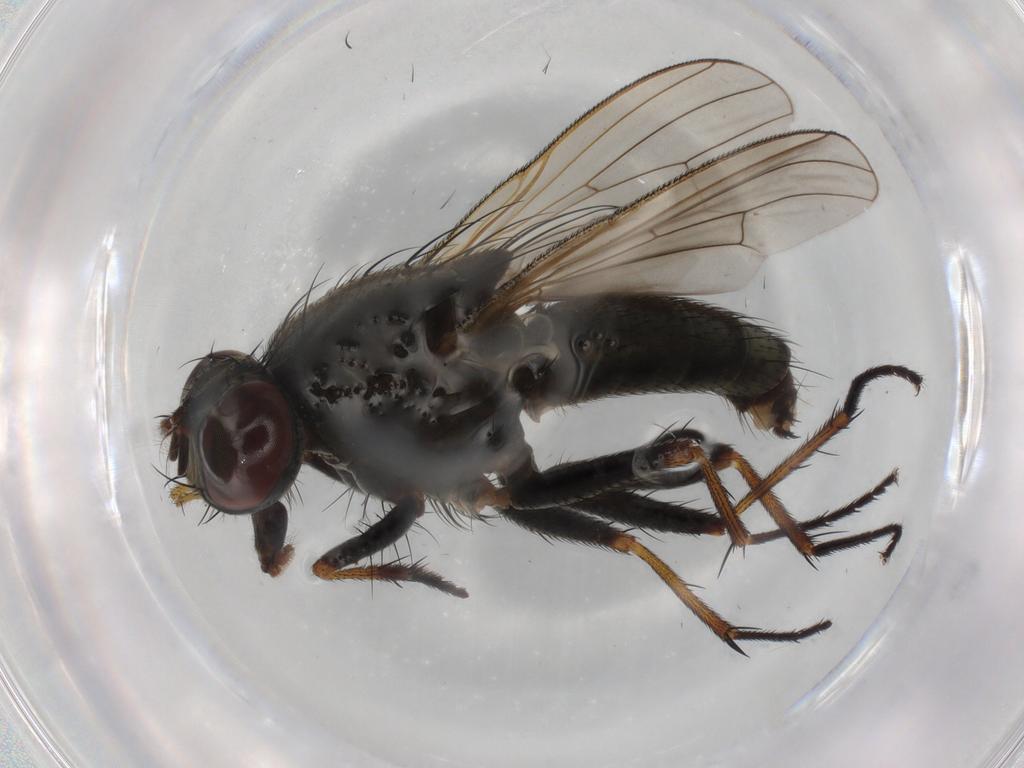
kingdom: Animalia
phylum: Arthropoda
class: Insecta
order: Diptera
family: Muscidae
